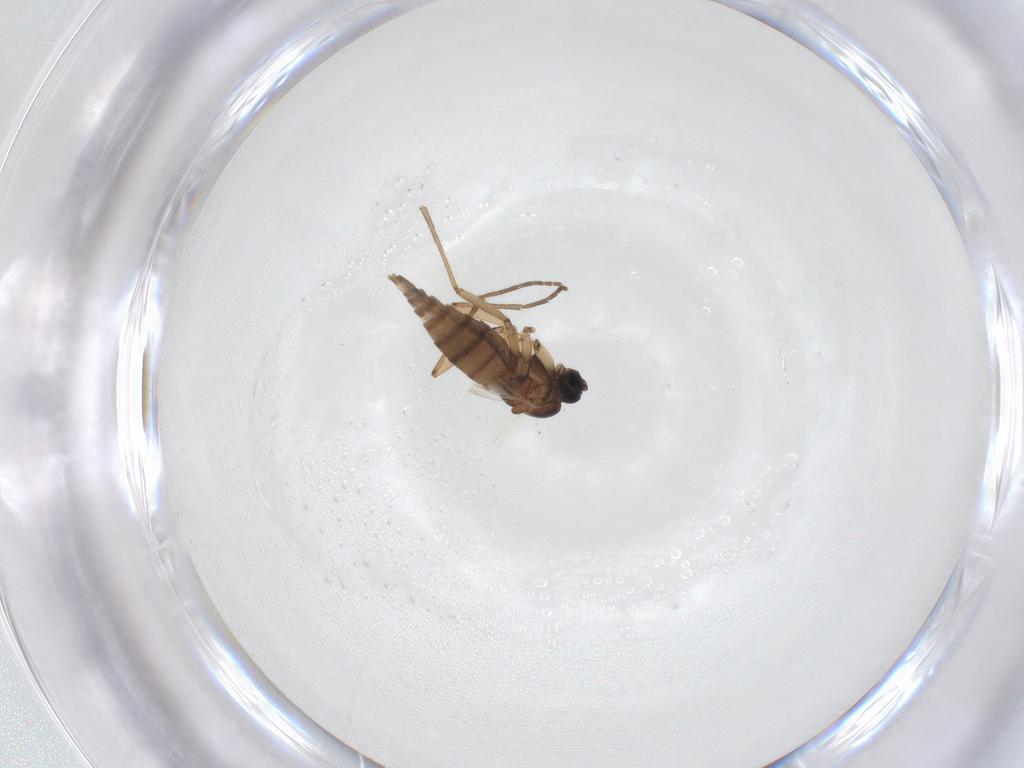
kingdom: Animalia
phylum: Arthropoda
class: Insecta
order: Diptera
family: Sciaridae
